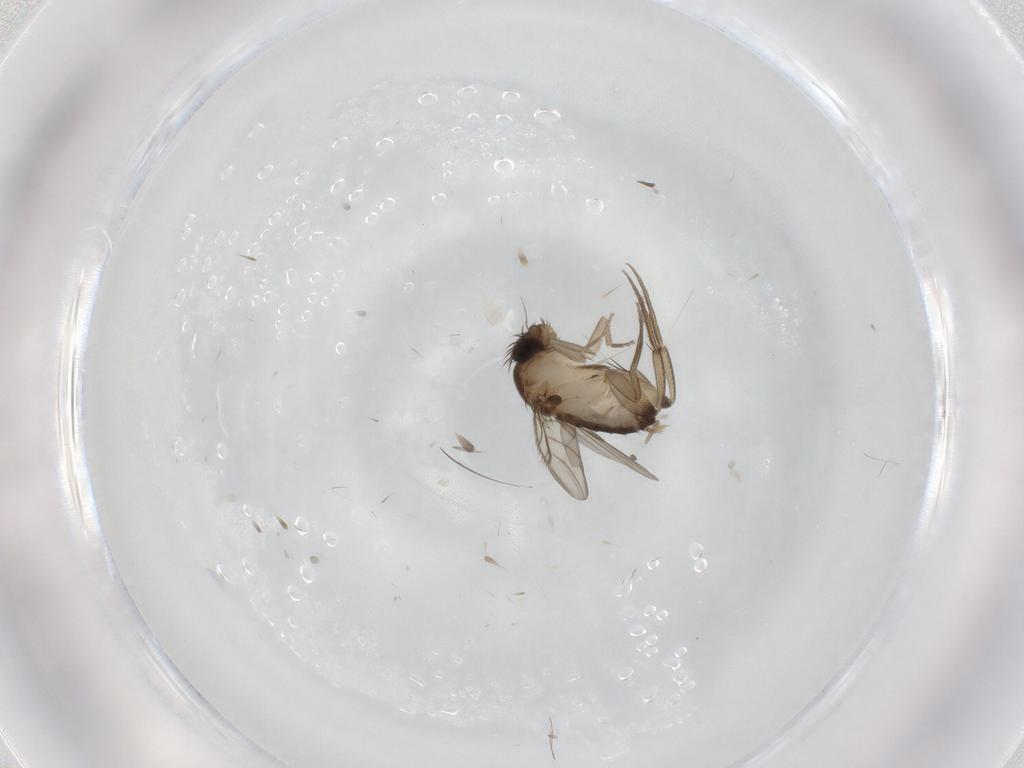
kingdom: Animalia
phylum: Arthropoda
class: Insecta
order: Diptera
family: Phoridae
